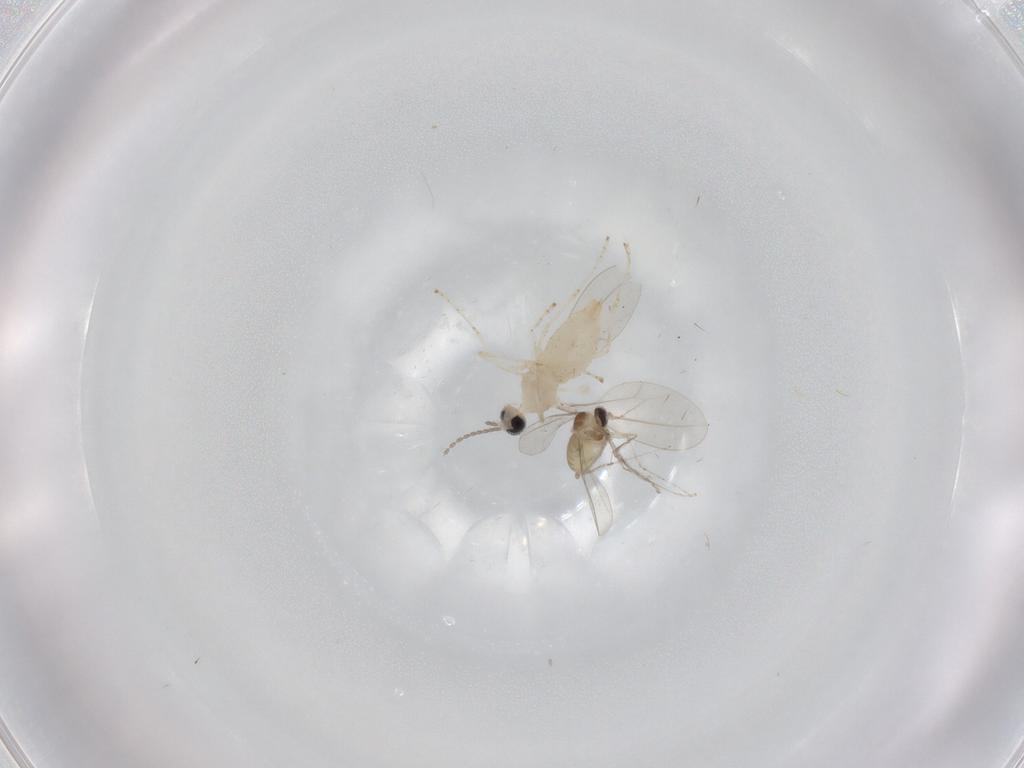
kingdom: Animalia
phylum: Arthropoda
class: Insecta
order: Diptera
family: Cecidomyiidae
